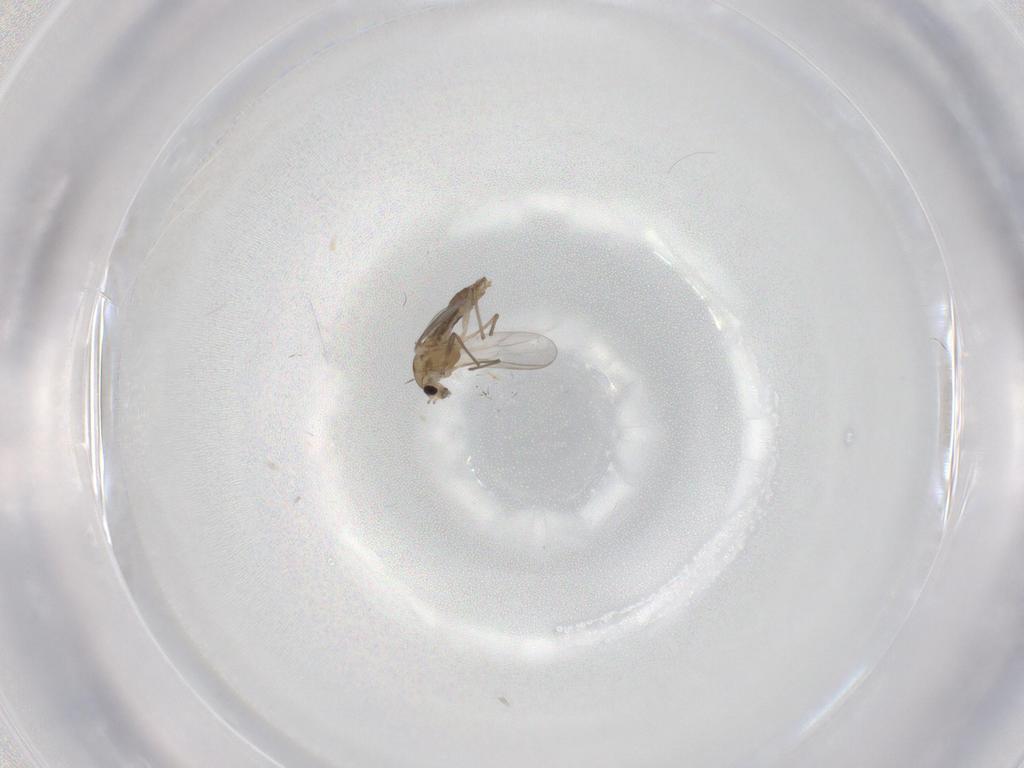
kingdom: Animalia
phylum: Arthropoda
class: Insecta
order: Diptera
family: Chironomidae
